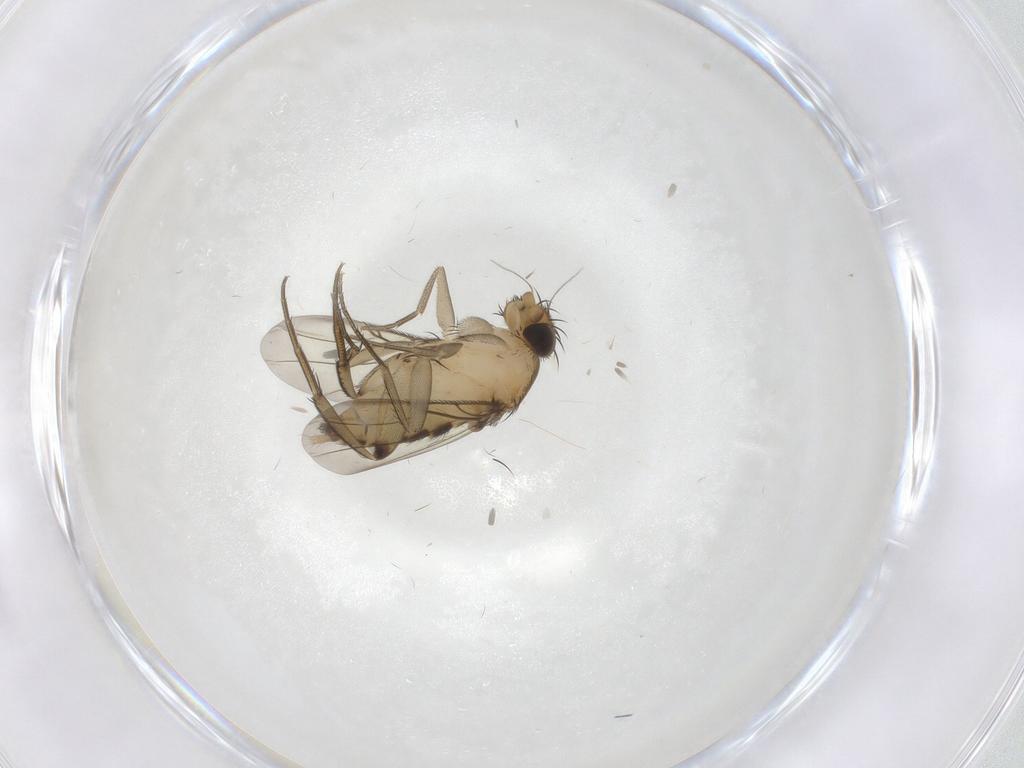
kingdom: Animalia
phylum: Arthropoda
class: Insecta
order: Diptera
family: Phoridae
